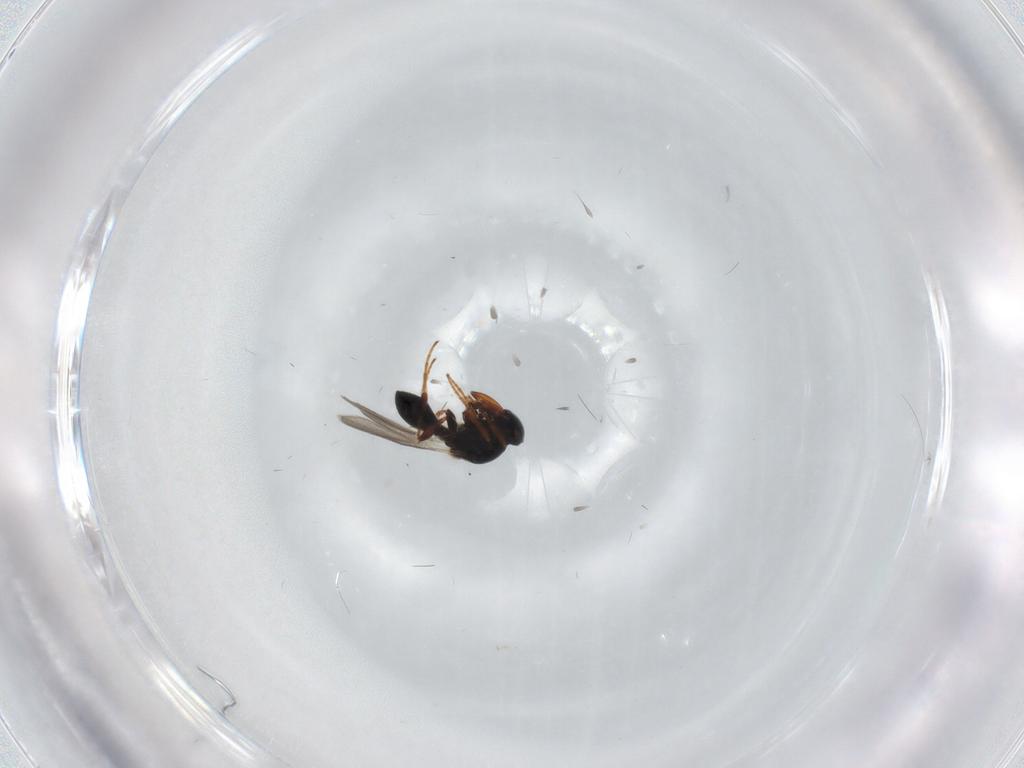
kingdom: Animalia
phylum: Arthropoda
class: Insecta
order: Hymenoptera
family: Platygastridae
